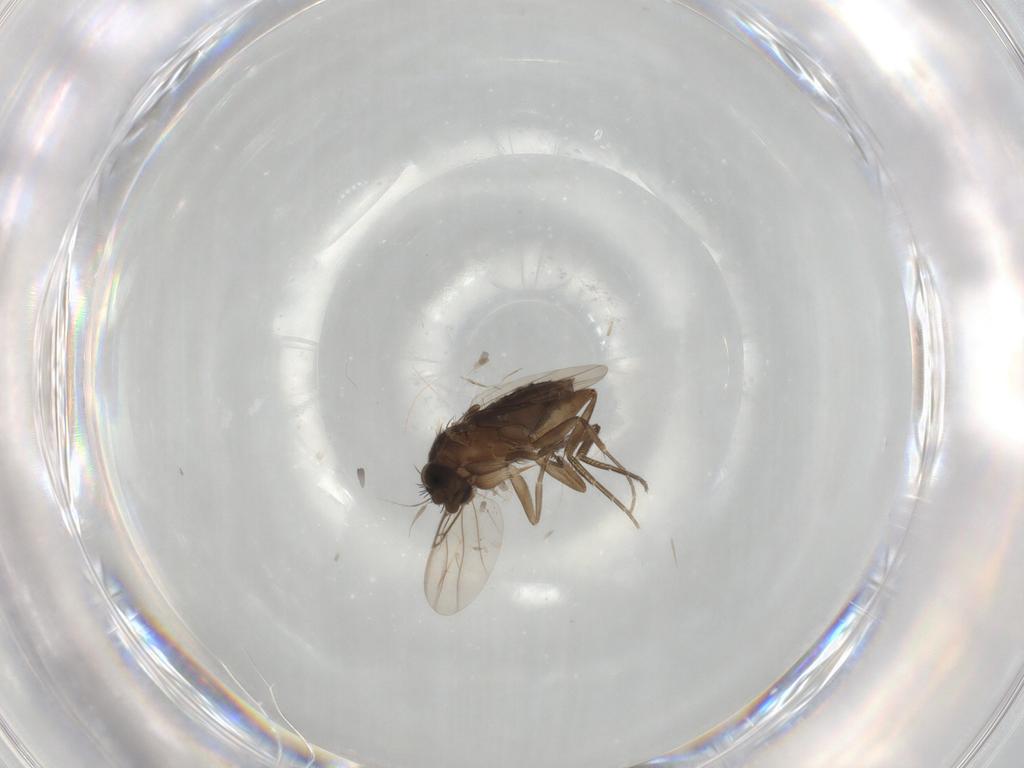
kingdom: Animalia
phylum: Arthropoda
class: Insecta
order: Diptera
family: Phoridae
